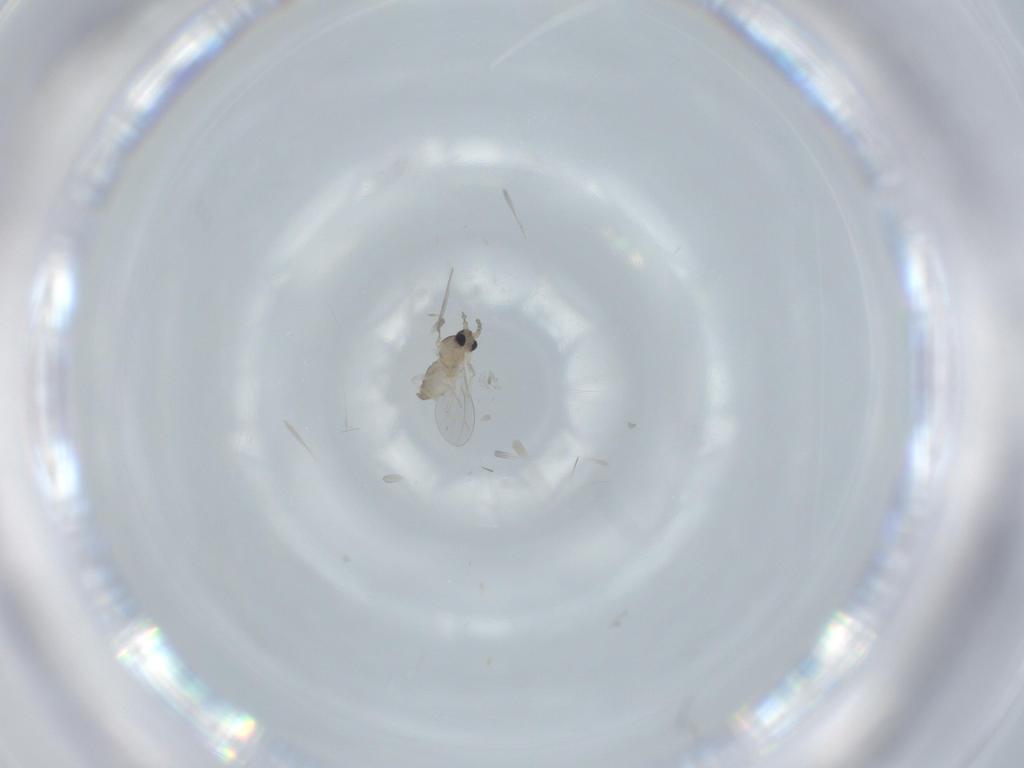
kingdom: Animalia
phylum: Arthropoda
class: Insecta
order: Diptera
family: Cecidomyiidae
